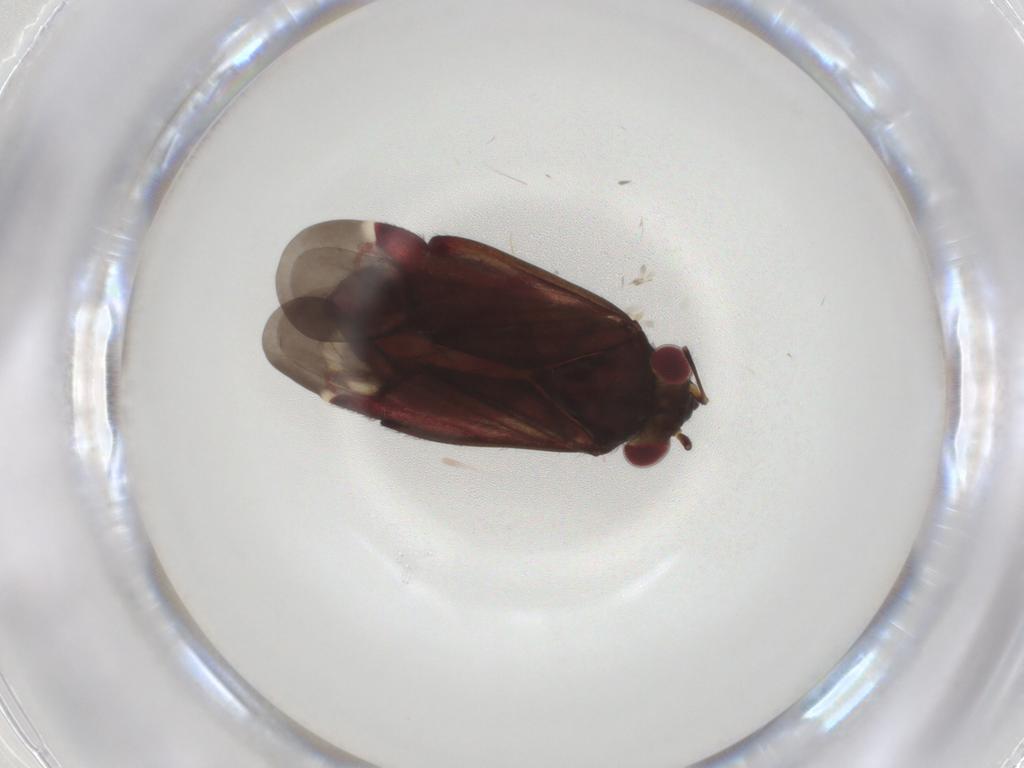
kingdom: Animalia
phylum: Arthropoda
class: Insecta
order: Hemiptera
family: Miridae
